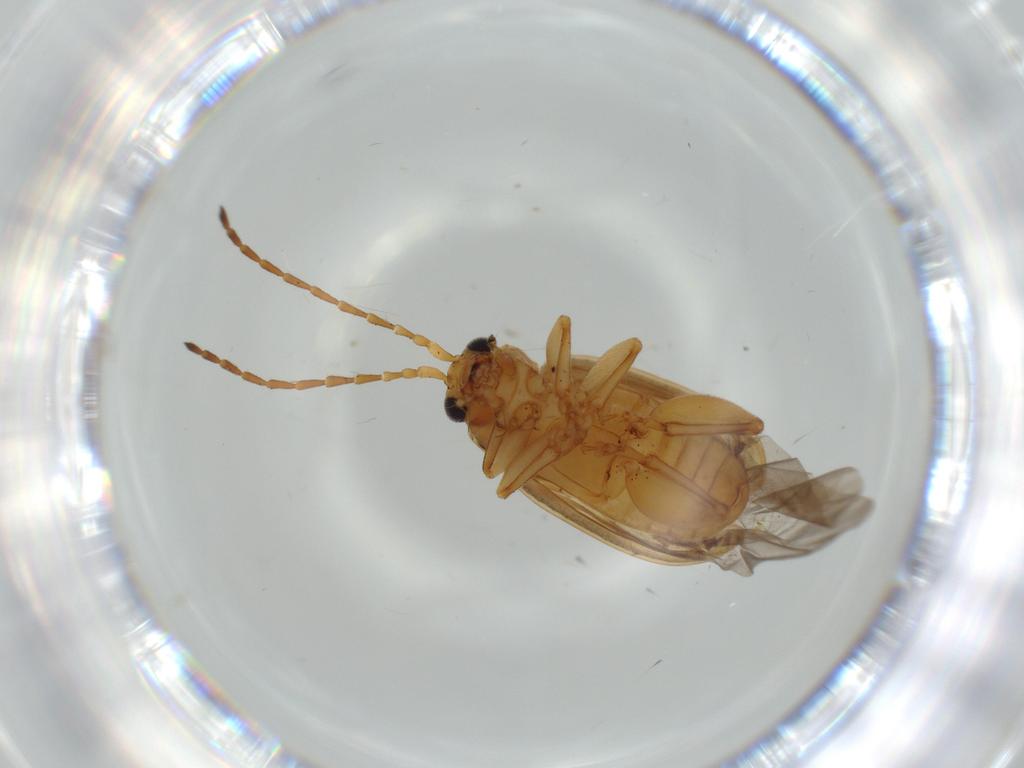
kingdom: Animalia
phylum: Arthropoda
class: Insecta
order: Coleoptera
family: Chrysomelidae
